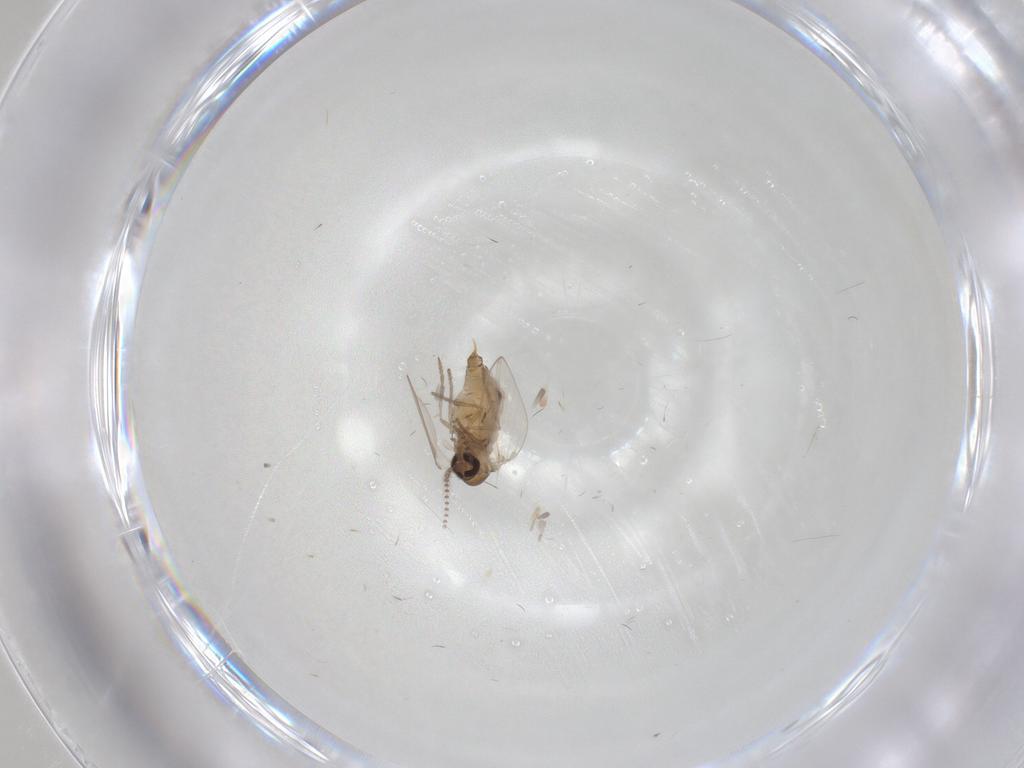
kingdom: Animalia
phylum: Arthropoda
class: Insecta
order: Diptera
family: Psychodidae
